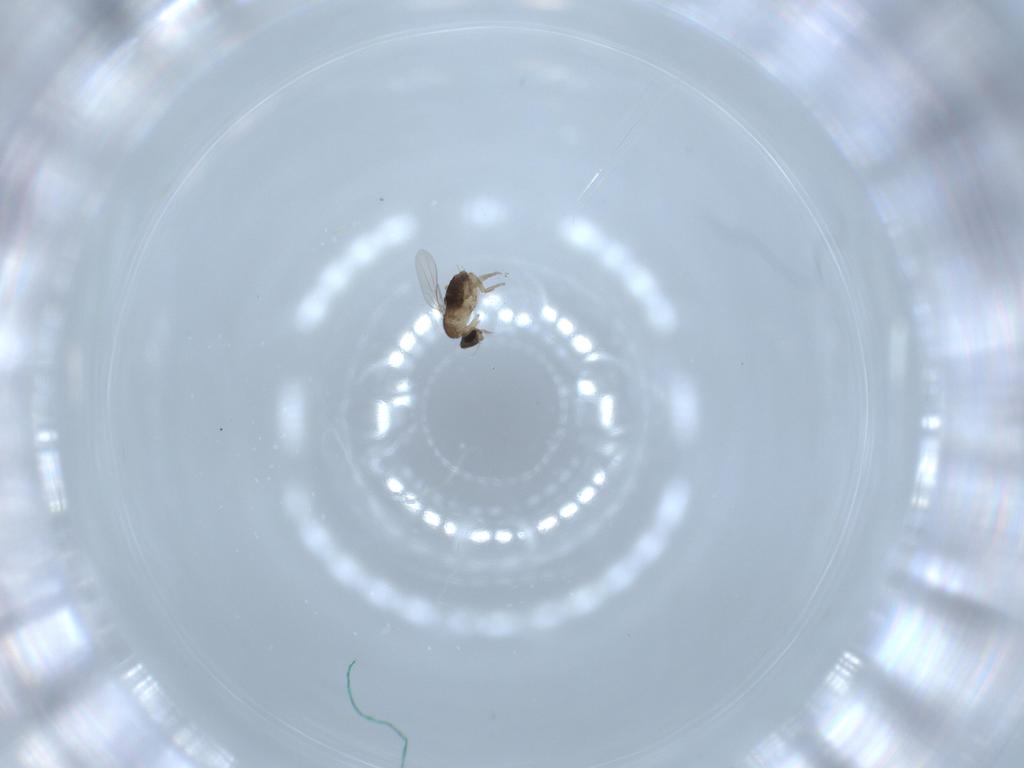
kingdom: Animalia
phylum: Arthropoda
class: Insecta
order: Diptera
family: Phoridae
